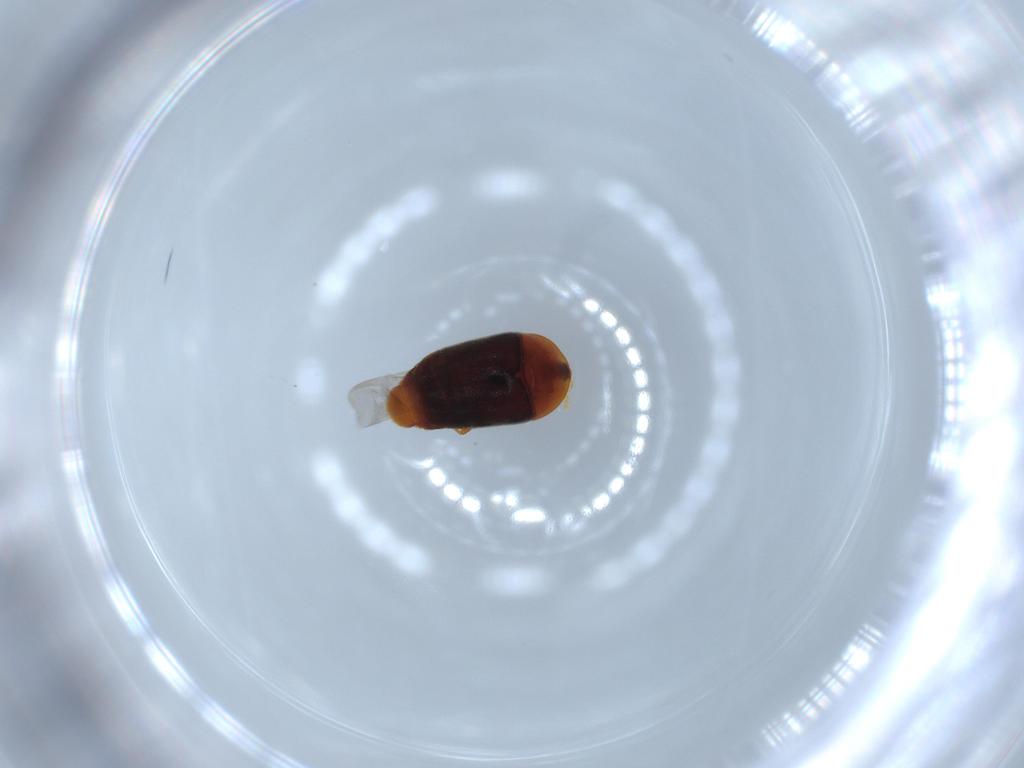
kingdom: Animalia
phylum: Arthropoda
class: Insecta
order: Coleoptera
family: Corylophidae
